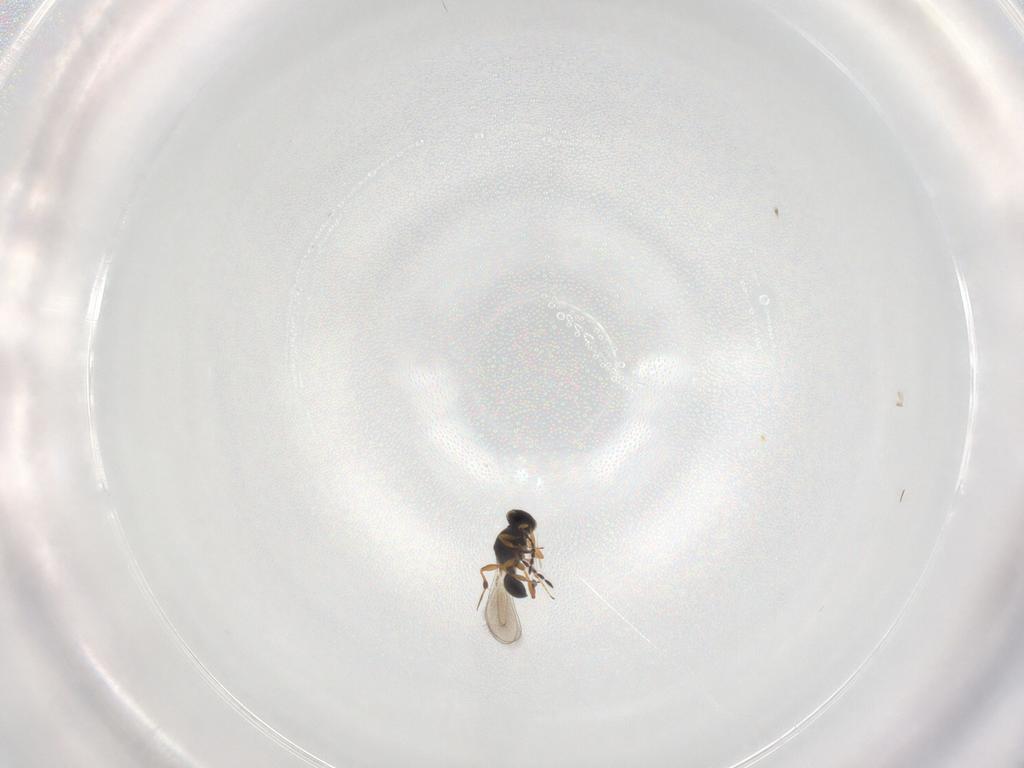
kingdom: Animalia
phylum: Arthropoda
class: Insecta
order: Hymenoptera
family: Platygastridae
